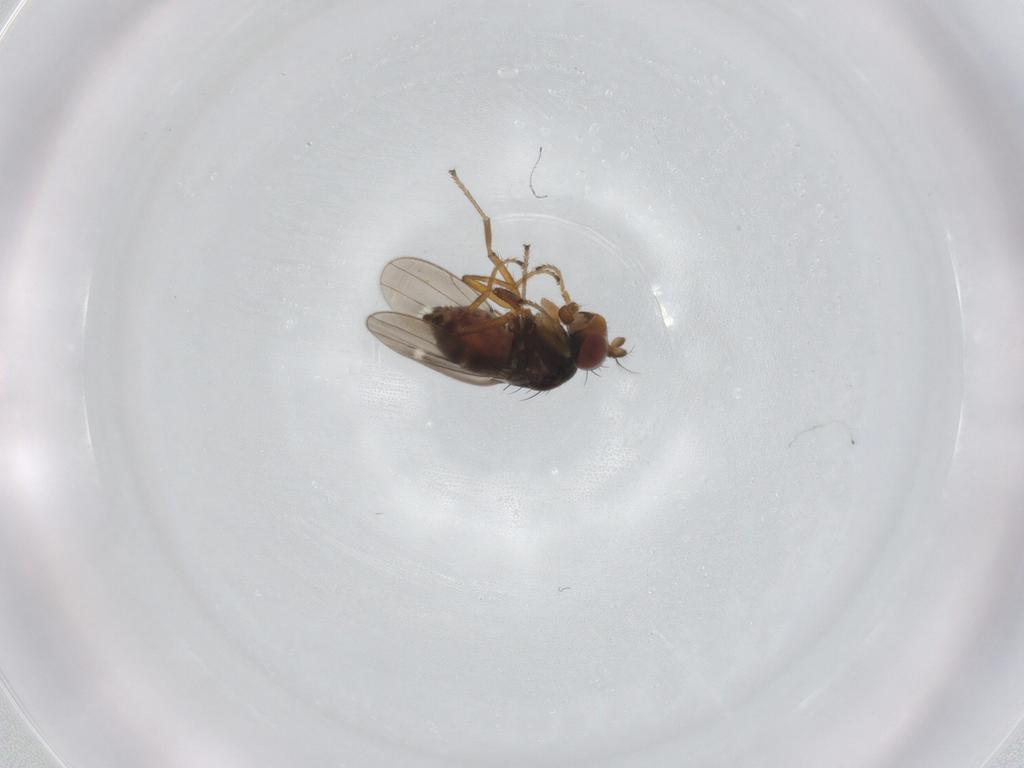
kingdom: Animalia
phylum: Arthropoda
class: Insecta
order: Diptera
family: Ephydridae
